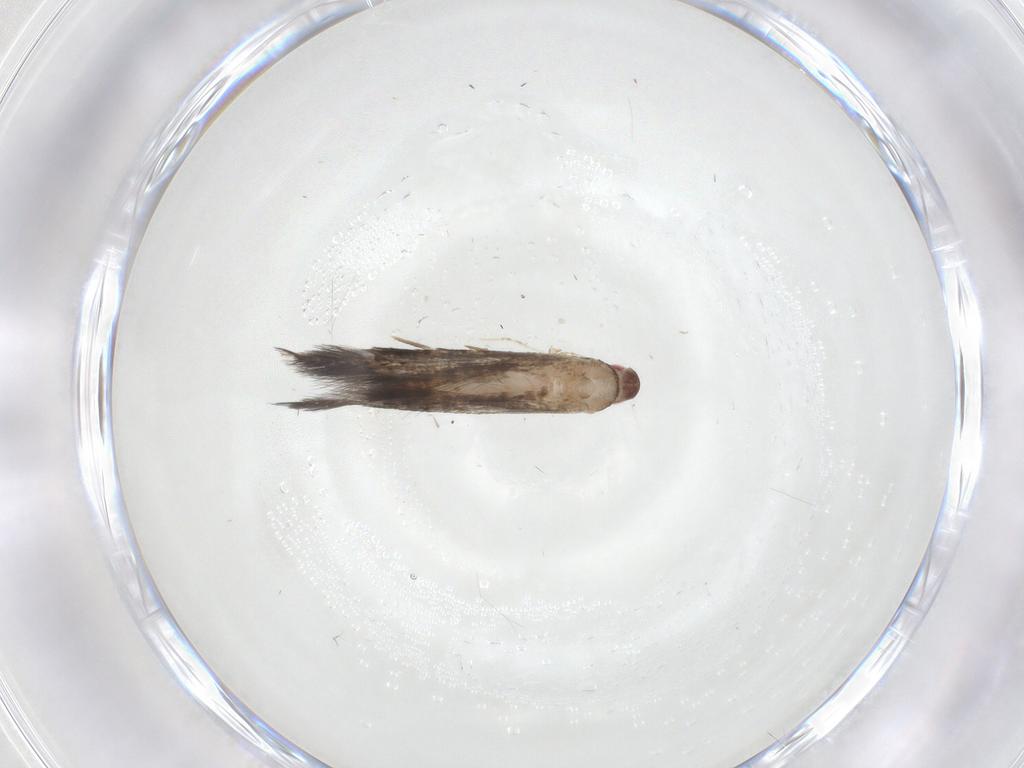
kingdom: Animalia
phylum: Arthropoda
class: Insecta
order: Lepidoptera
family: Cosmopterigidae
